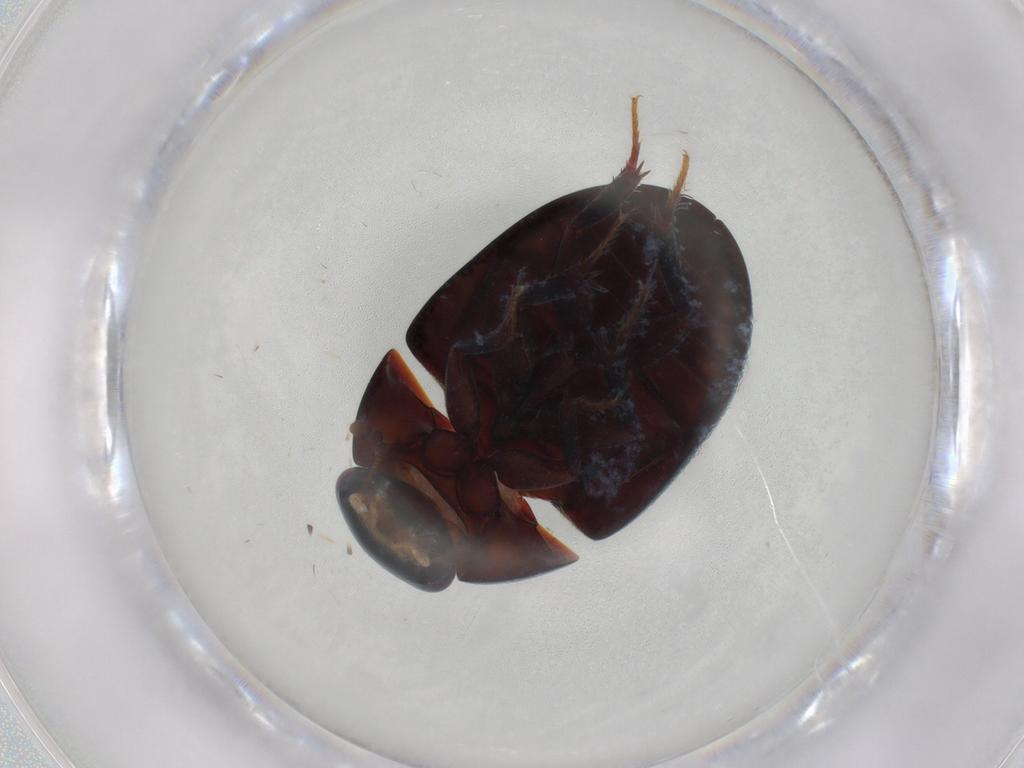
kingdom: Animalia
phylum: Arthropoda
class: Insecta
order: Coleoptera
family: Hydrophilidae
